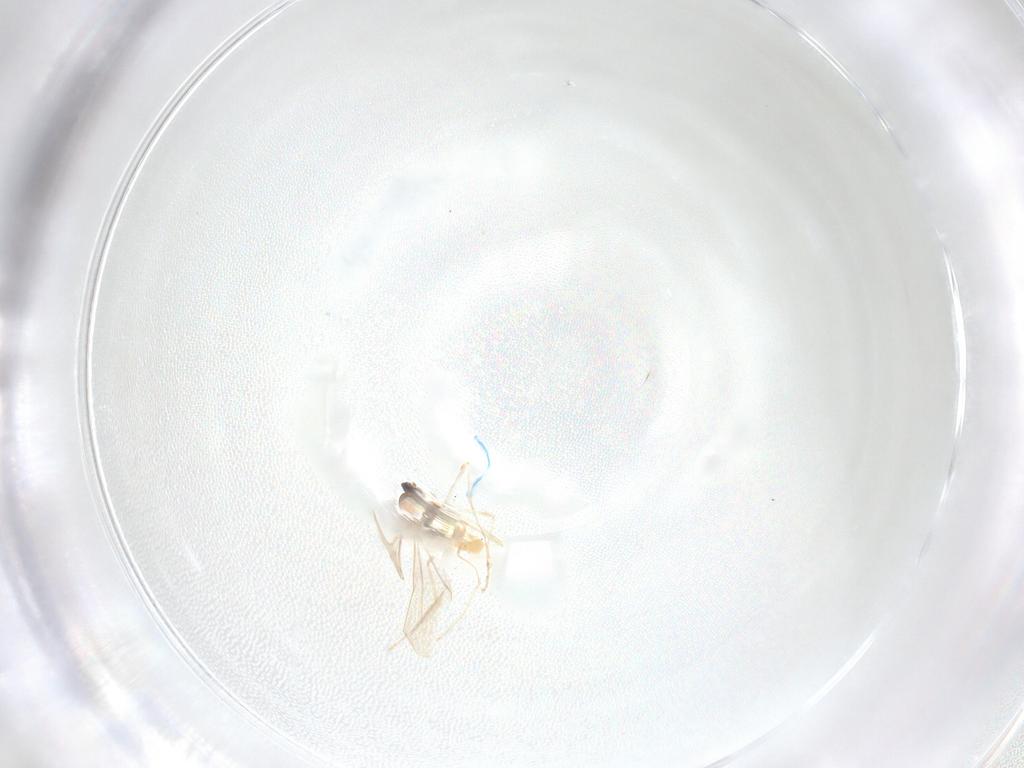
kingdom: Animalia
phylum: Arthropoda
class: Insecta
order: Diptera
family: Cecidomyiidae
